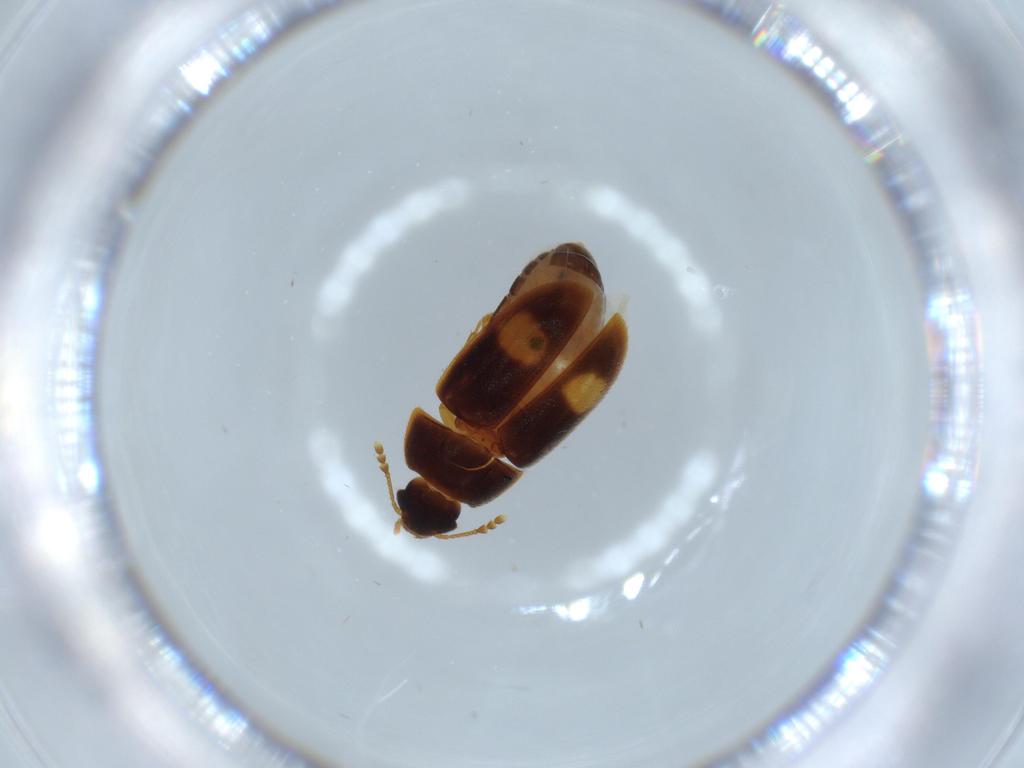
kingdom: Animalia
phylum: Arthropoda
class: Insecta
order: Coleoptera
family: Mycetophagidae
